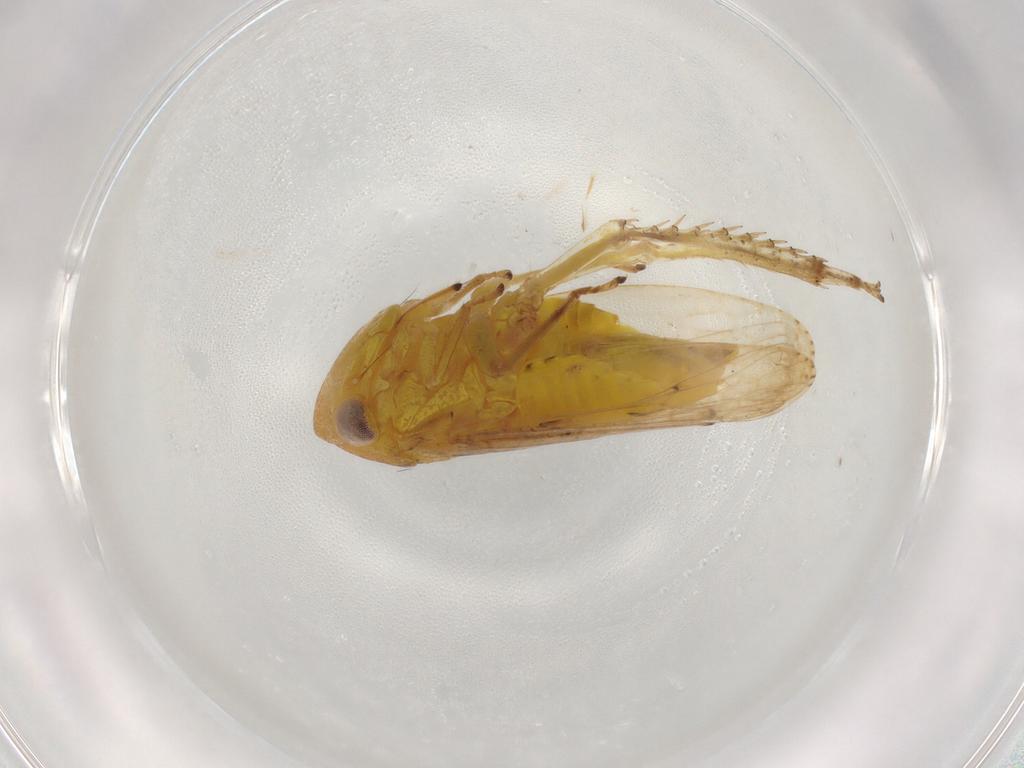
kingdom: Animalia
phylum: Arthropoda
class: Insecta
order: Hemiptera
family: Cicadellidae
